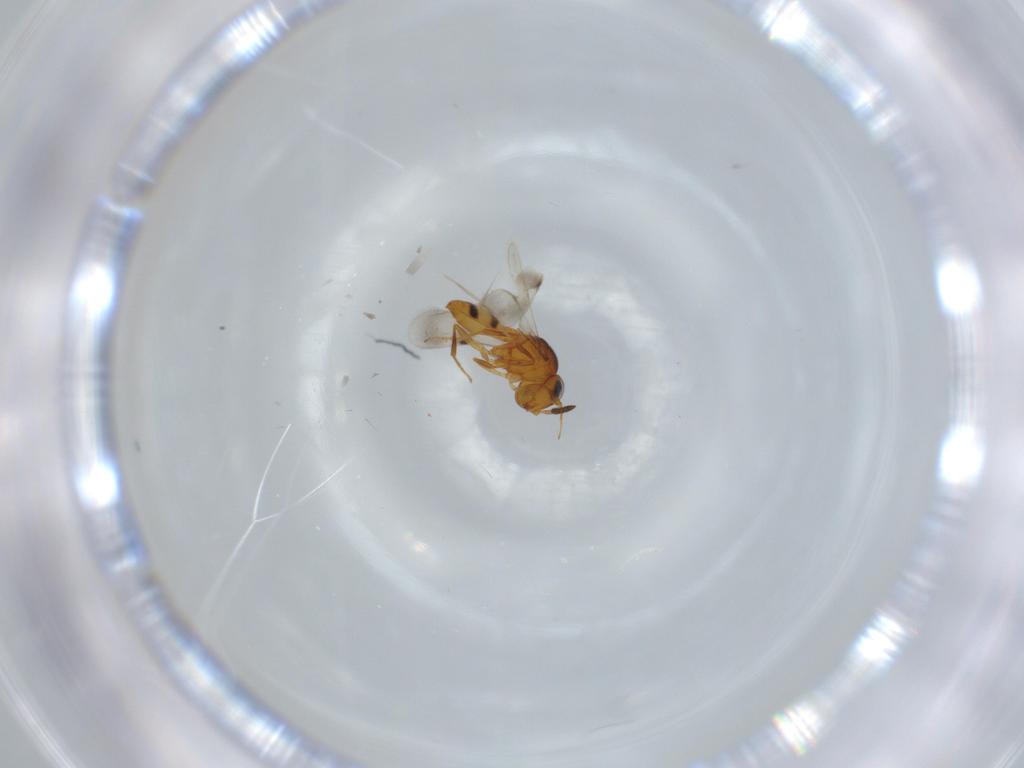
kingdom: Animalia
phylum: Arthropoda
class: Insecta
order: Hymenoptera
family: Scelionidae
